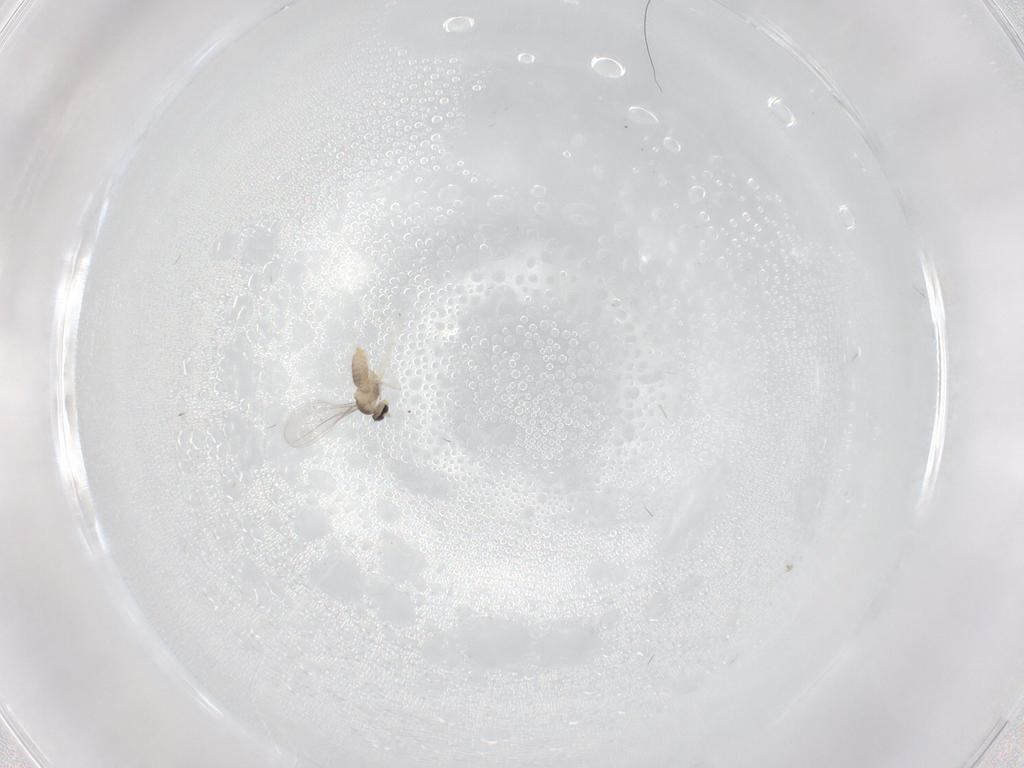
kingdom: Animalia
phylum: Arthropoda
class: Insecta
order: Diptera
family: Cecidomyiidae
